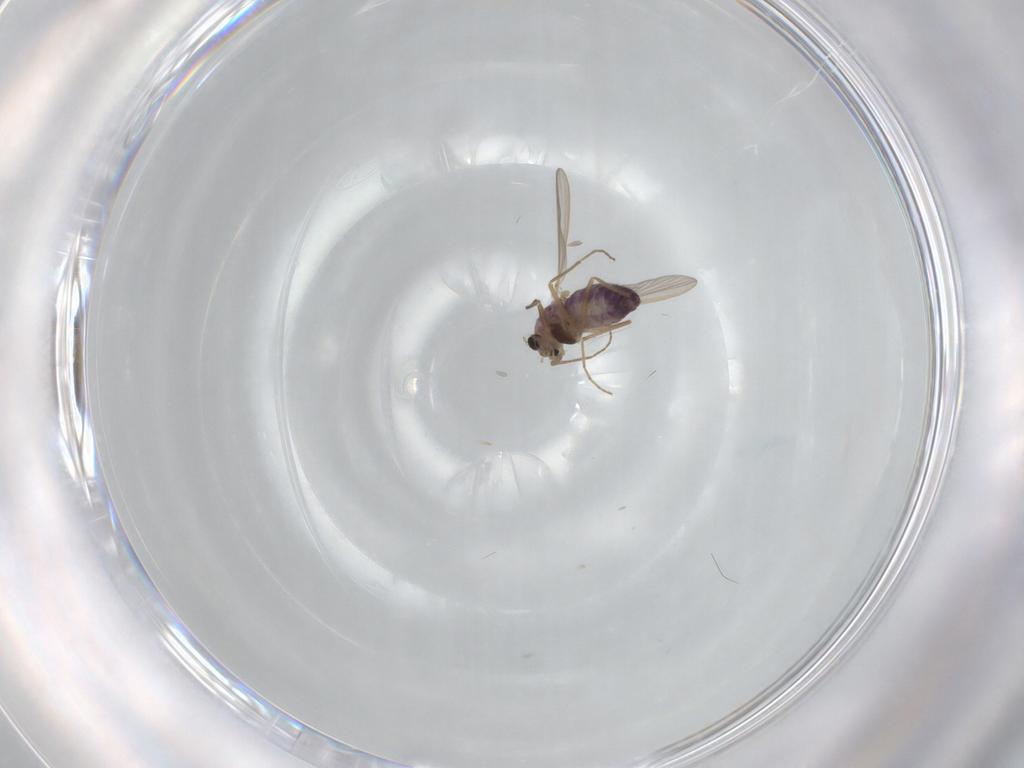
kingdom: Animalia
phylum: Arthropoda
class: Insecta
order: Diptera
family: Chironomidae
